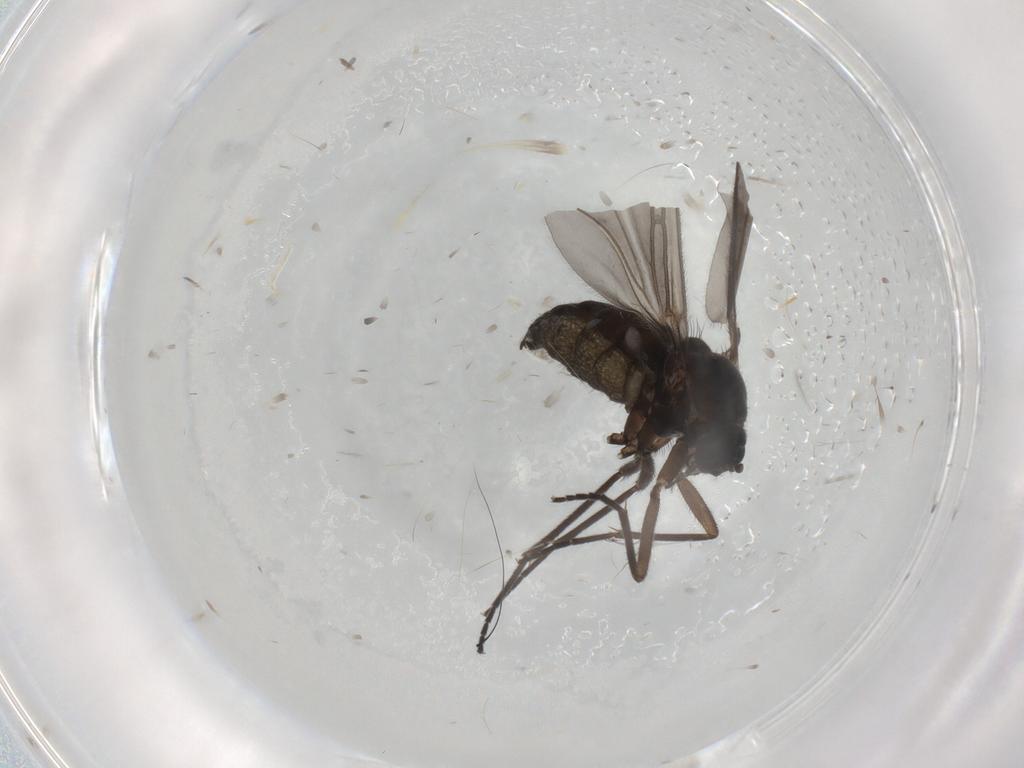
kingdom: Animalia
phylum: Arthropoda
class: Insecta
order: Diptera
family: Sciaridae
